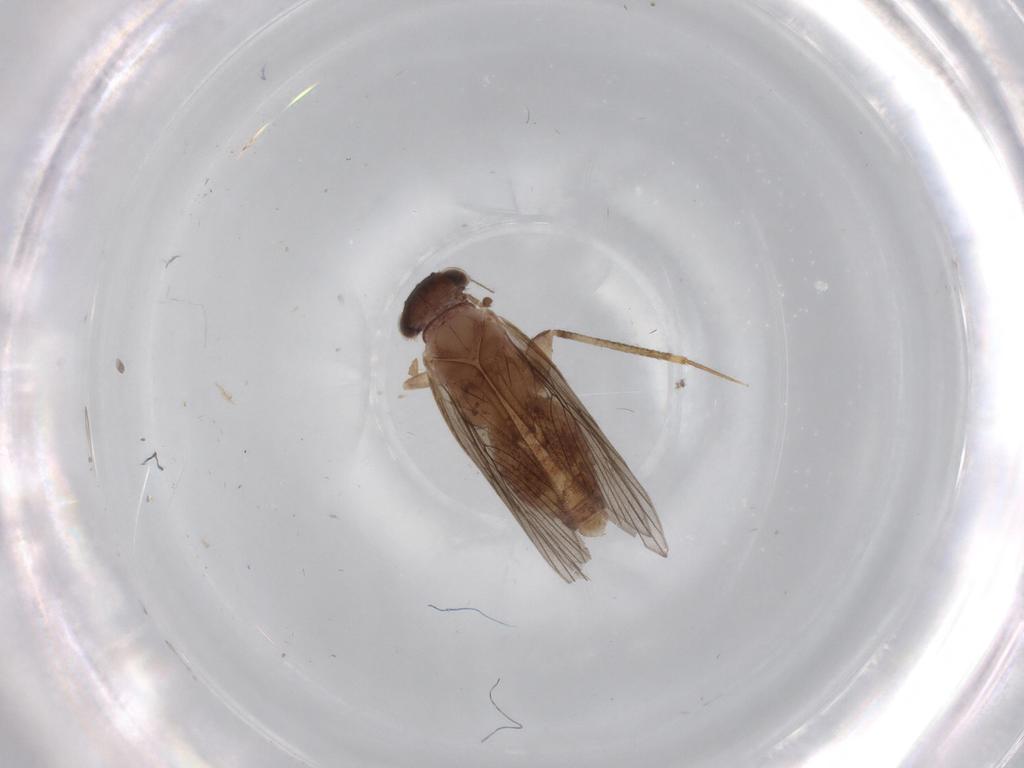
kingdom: Animalia
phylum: Arthropoda
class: Insecta
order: Psocodea
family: Lepidopsocidae
